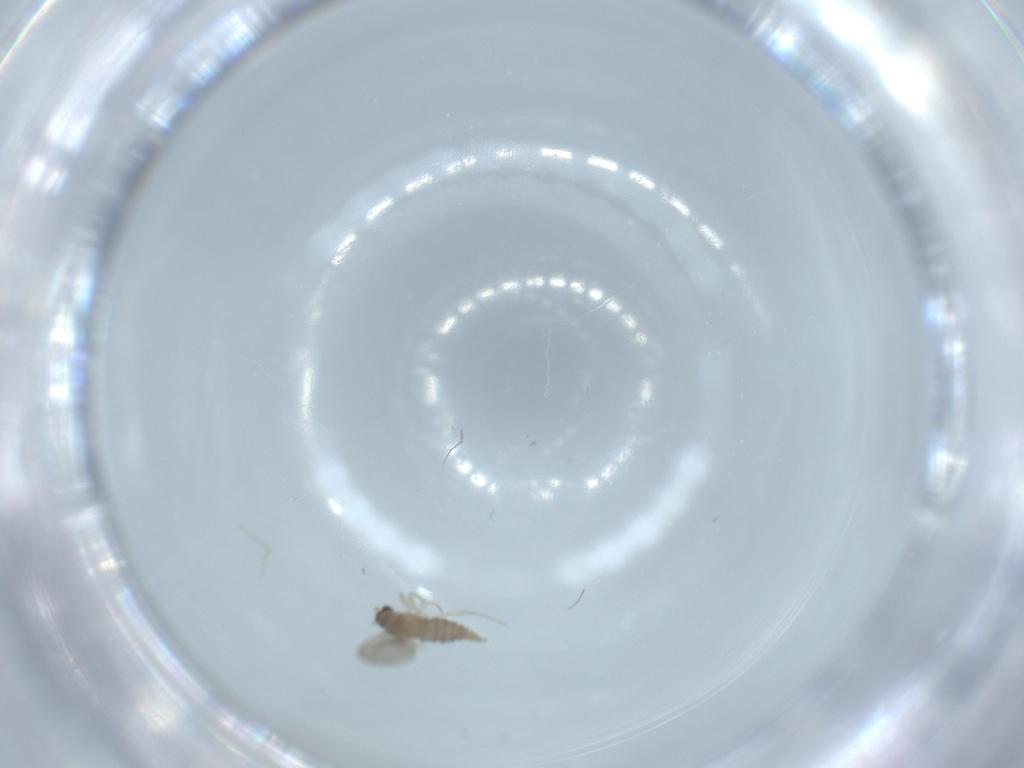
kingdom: Animalia
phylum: Arthropoda
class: Insecta
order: Diptera
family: Cecidomyiidae
